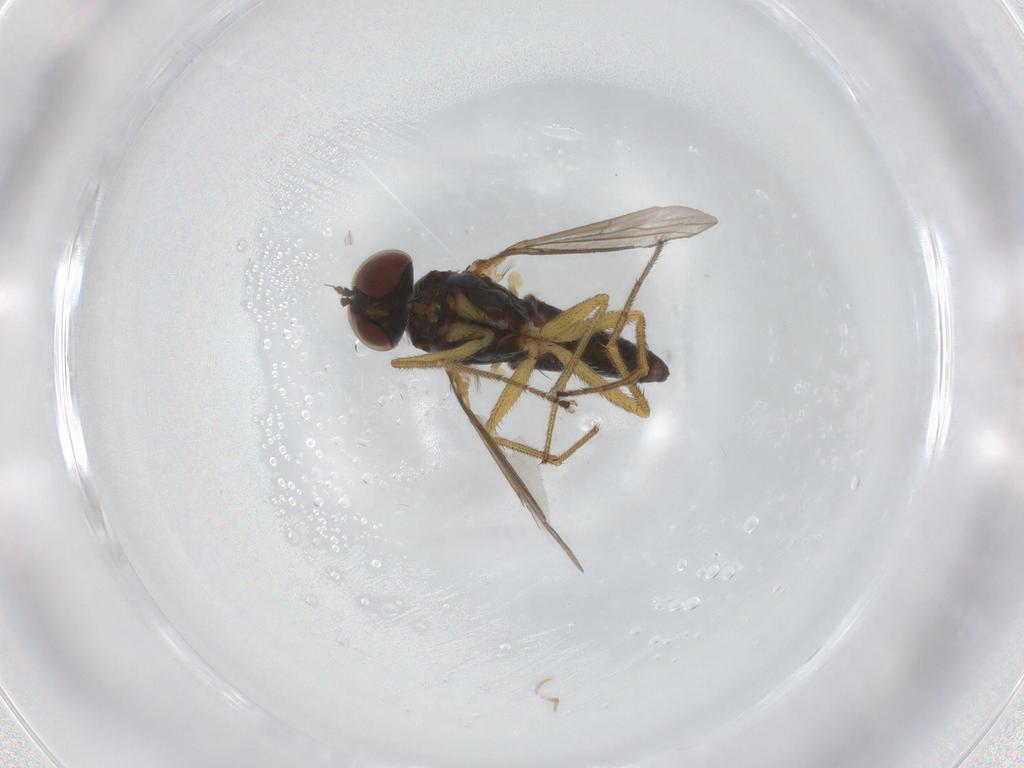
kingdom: Animalia
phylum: Arthropoda
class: Insecta
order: Diptera
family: Dolichopodidae
